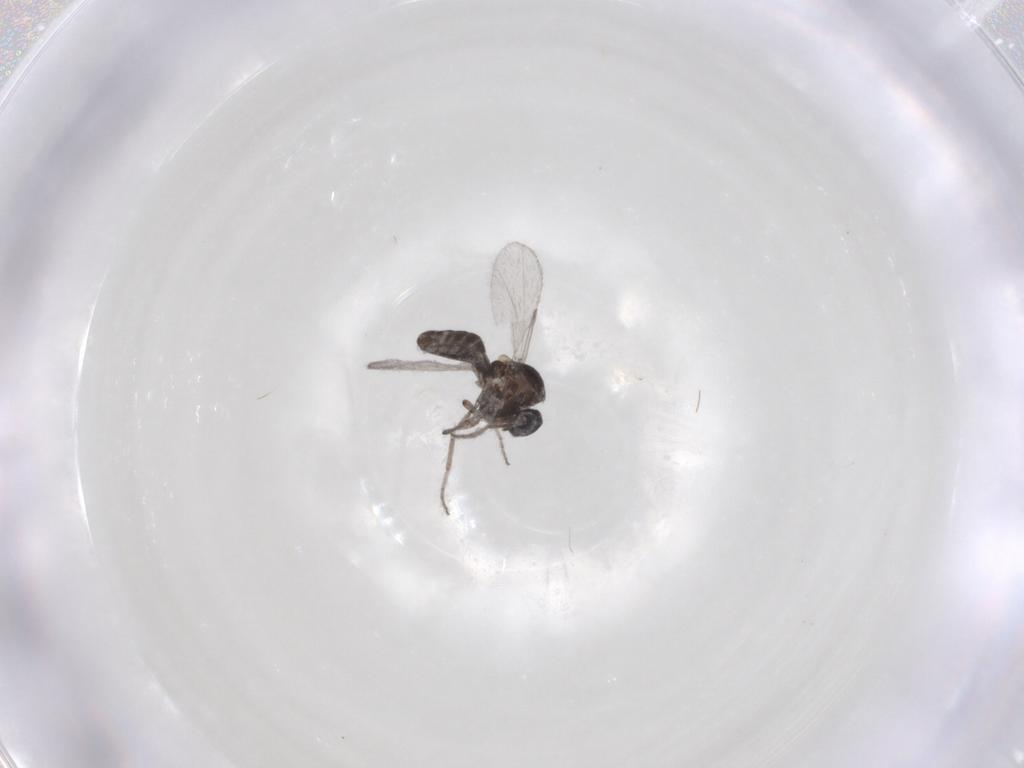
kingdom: Animalia
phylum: Arthropoda
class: Insecta
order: Diptera
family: Ceratopogonidae
